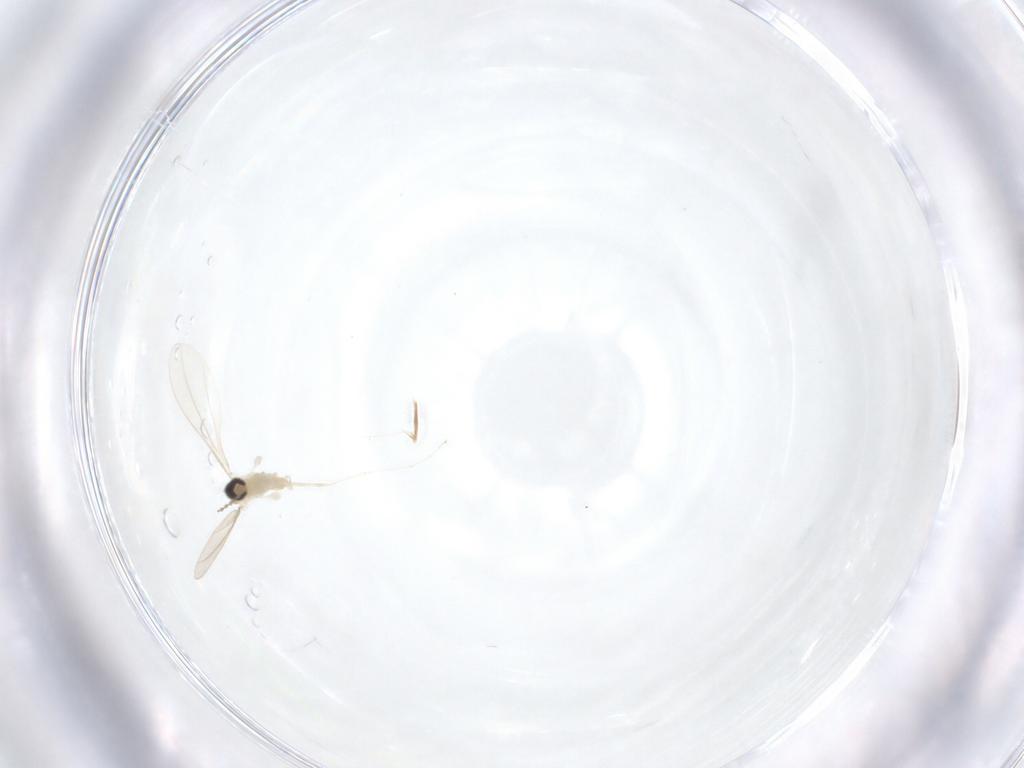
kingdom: Animalia
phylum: Arthropoda
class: Insecta
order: Diptera
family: Cecidomyiidae
